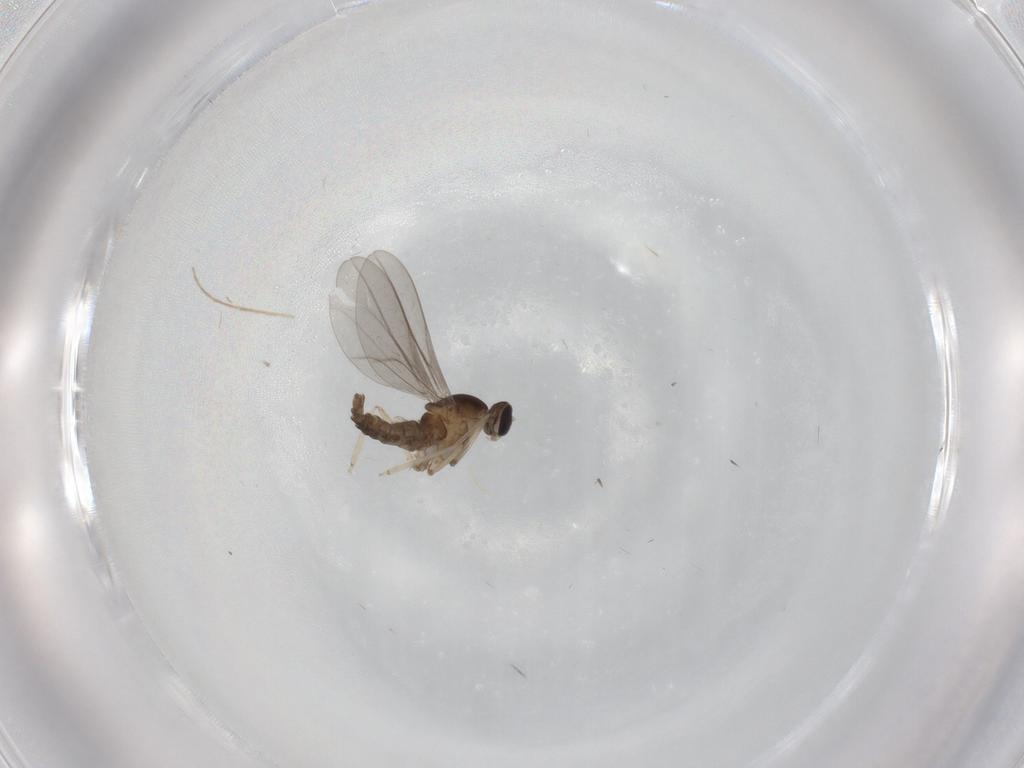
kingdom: Animalia
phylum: Arthropoda
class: Insecta
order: Diptera
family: Cecidomyiidae
